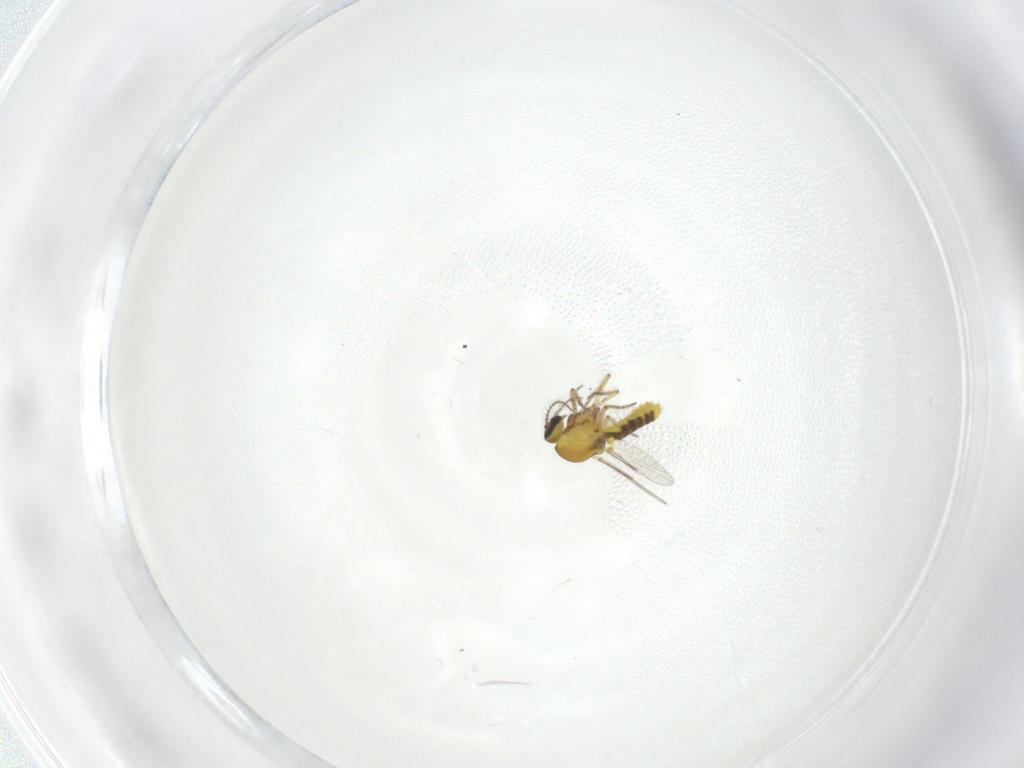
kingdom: Animalia
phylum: Arthropoda
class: Insecta
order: Diptera
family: Ceratopogonidae
